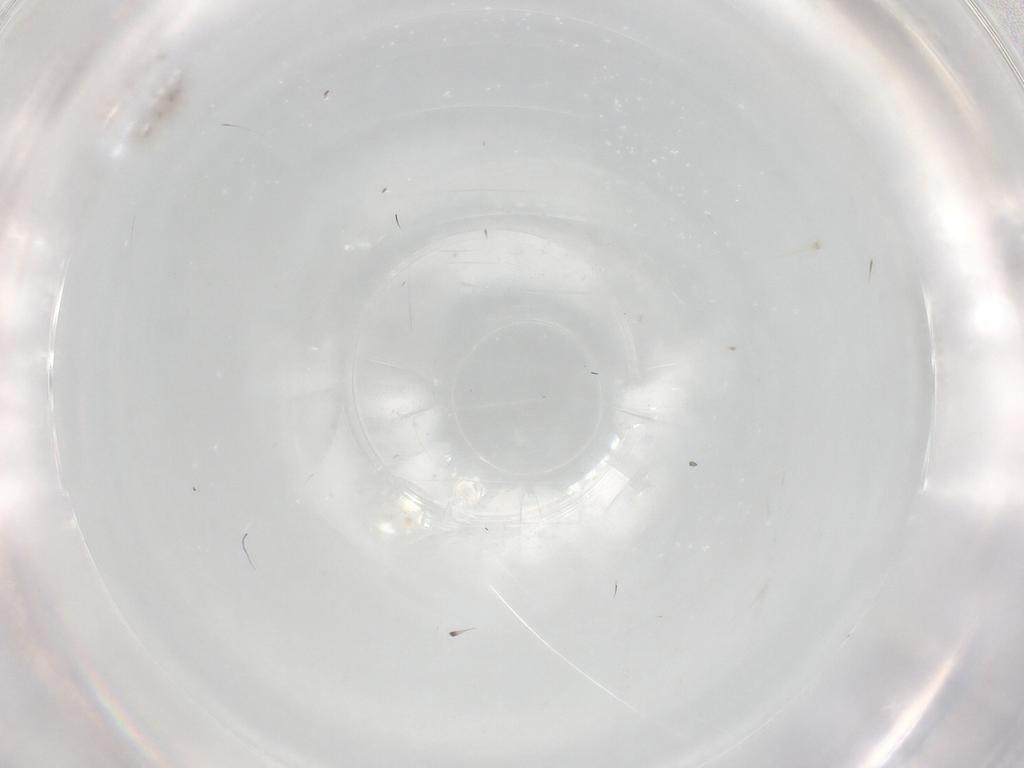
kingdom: Animalia
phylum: Arthropoda
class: Insecta
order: Hymenoptera
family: Mymaridae
